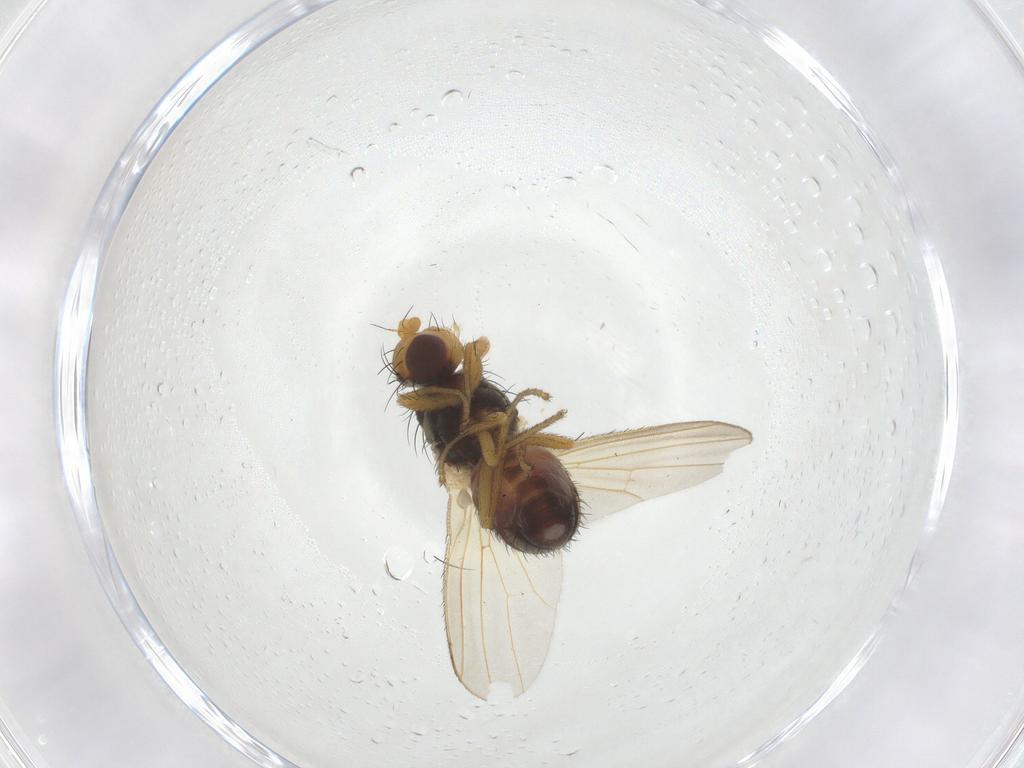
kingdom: Animalia
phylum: Arthropoda
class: Insecta
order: Diptera
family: Heleomyzidae
